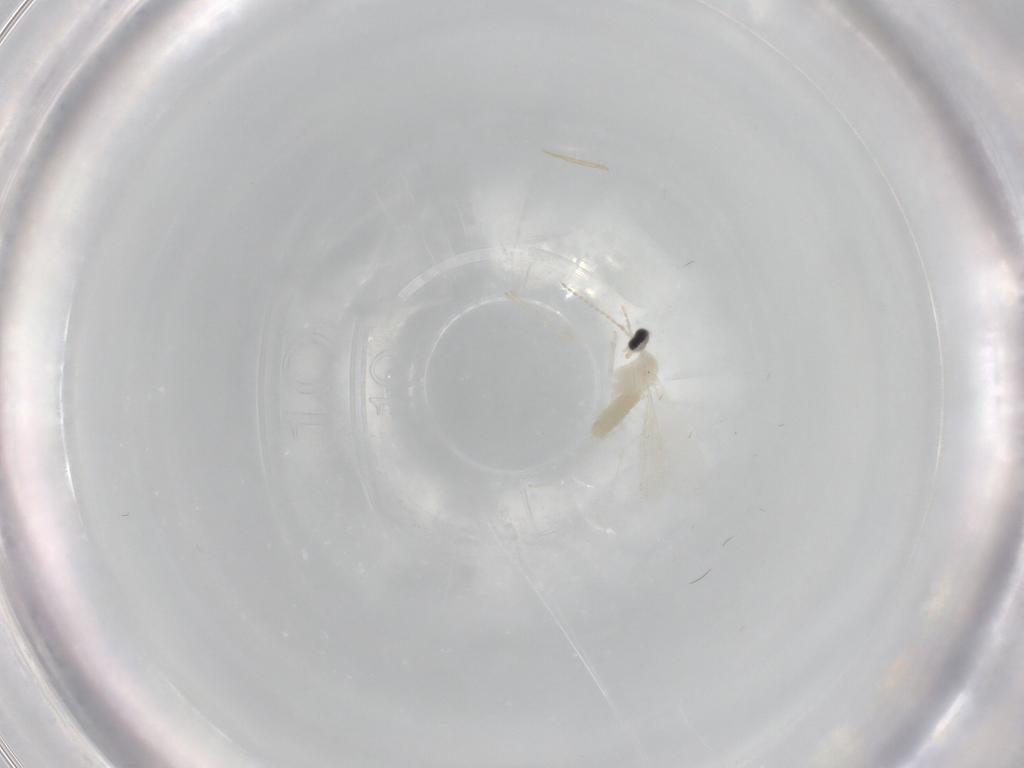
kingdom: Animalia
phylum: Arthropoda
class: Insecta
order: Diptera
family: Cecidomyiidae
